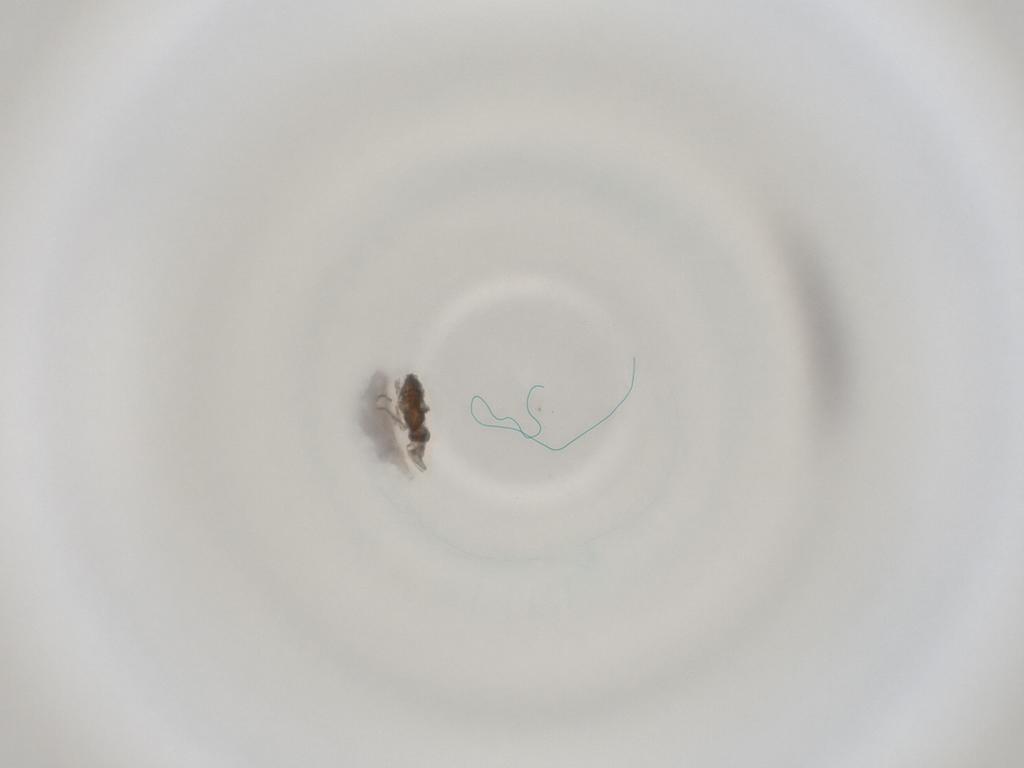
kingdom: Animalia
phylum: Arthropoda
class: Insecta
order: Diptera
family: Cecidomyiidae
